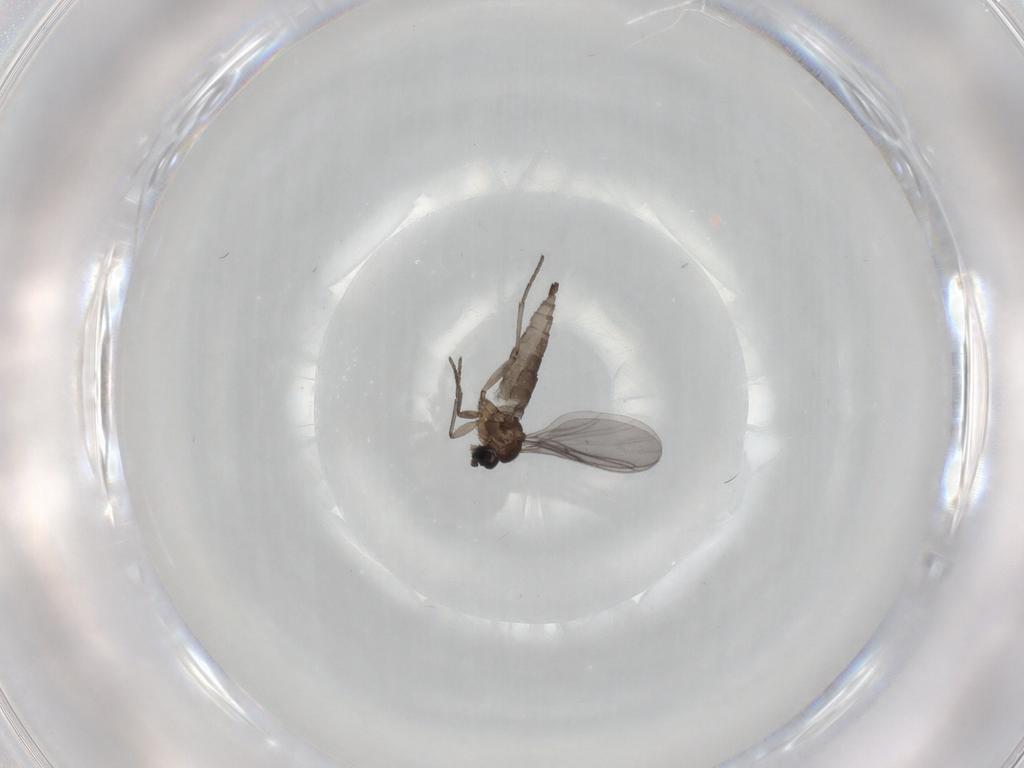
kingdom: Animalia
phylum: Arthropoda
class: Insecta
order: Diptera
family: Sciaridae
